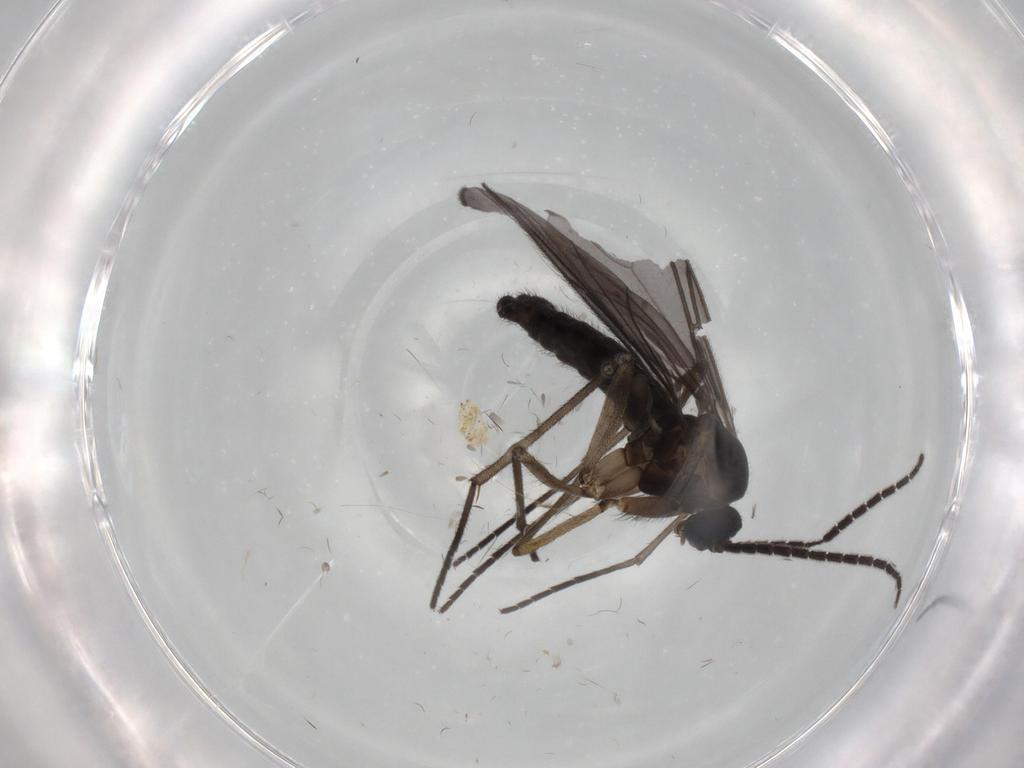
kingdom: Animalia
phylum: Arthropoda
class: Insecta
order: Diptera
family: Sciaridae
